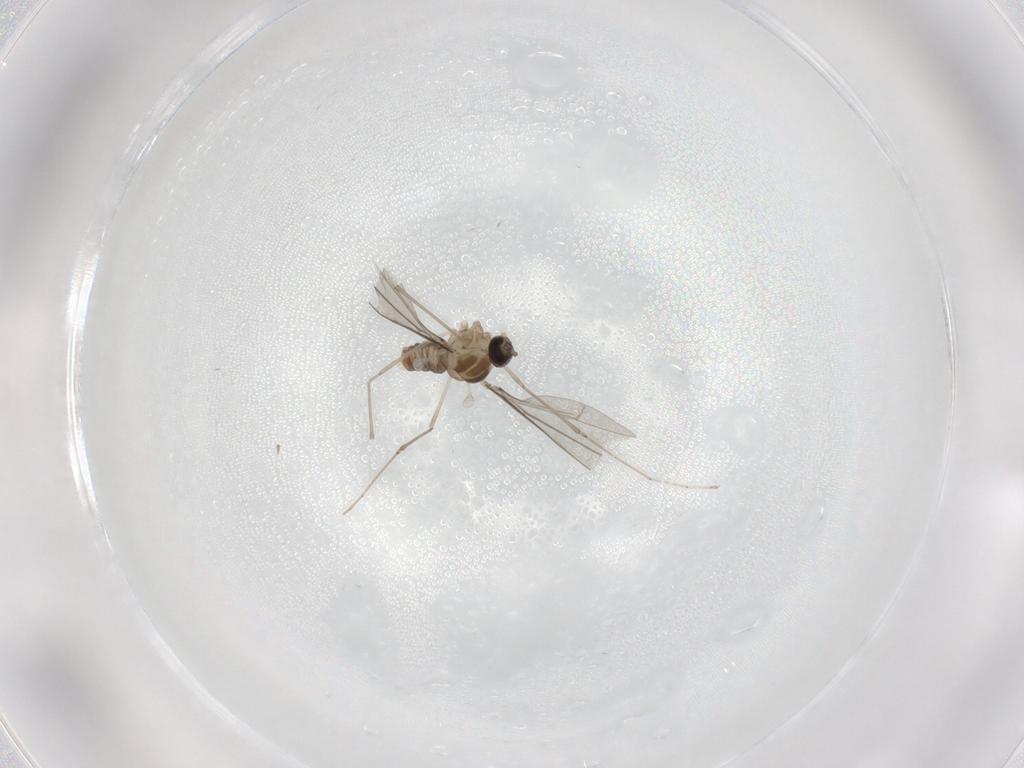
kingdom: Animalia
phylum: Arthropoda
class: Insecta
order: Diptera
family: Cecidomyiidae
